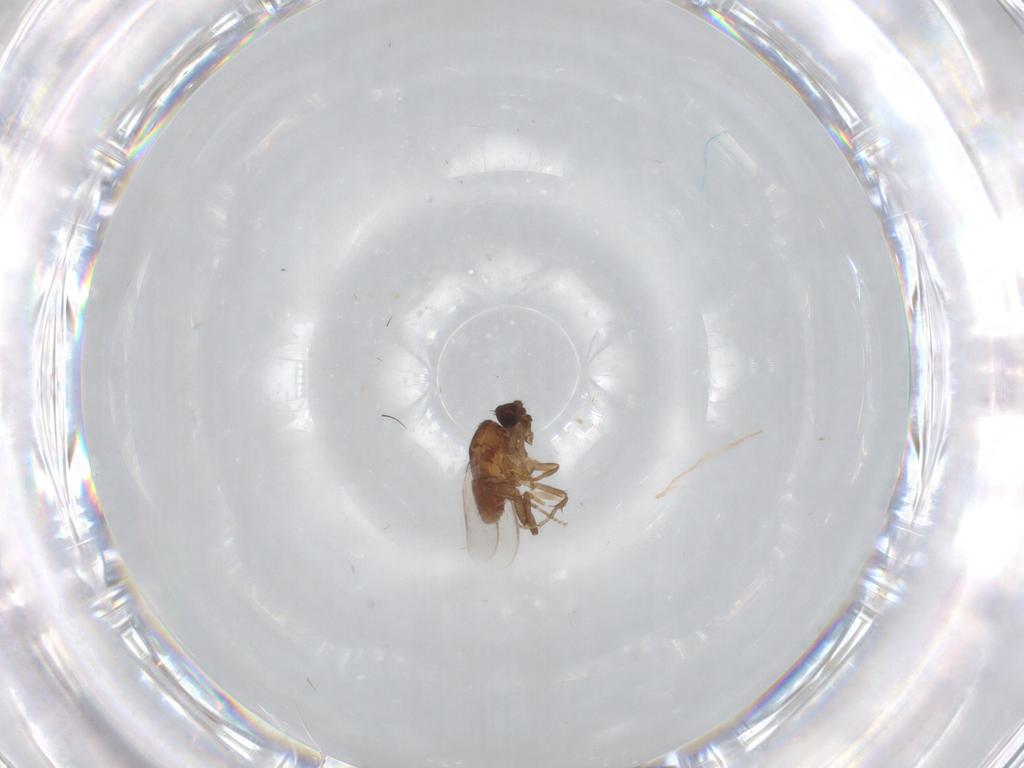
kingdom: Animalia
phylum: Arthropoda
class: Insecta
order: Diptera
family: Sphaeroceridae
